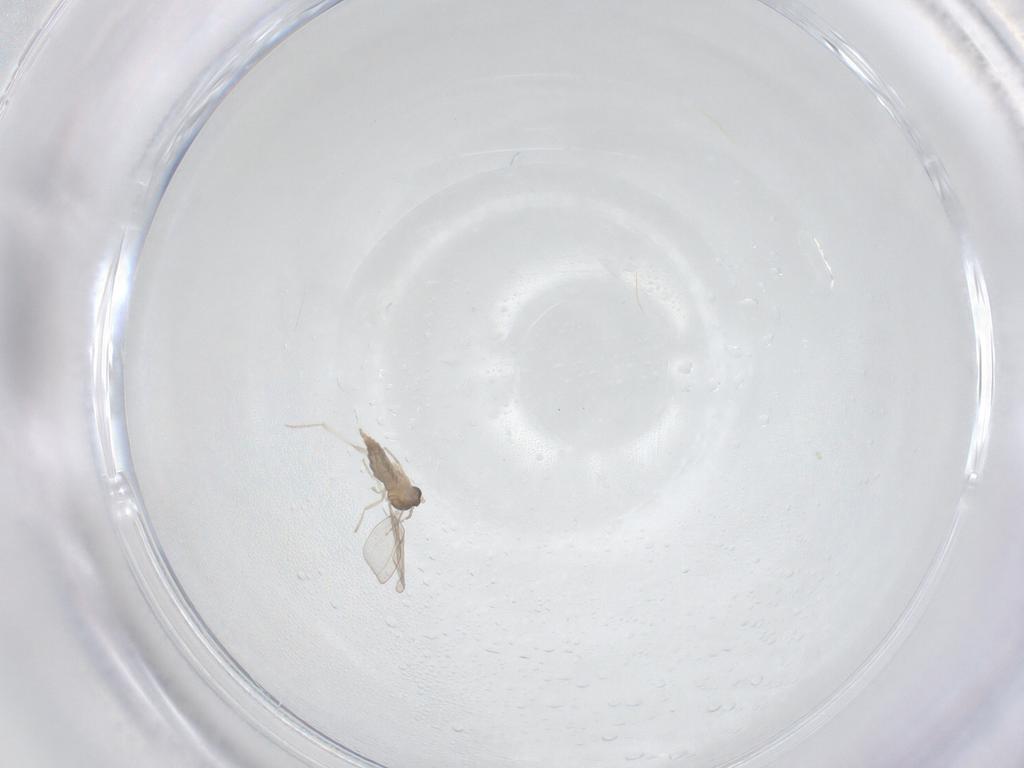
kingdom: Animalia
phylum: Arthropoda
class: Insecta
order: Diptera
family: Cecidomyiidae
